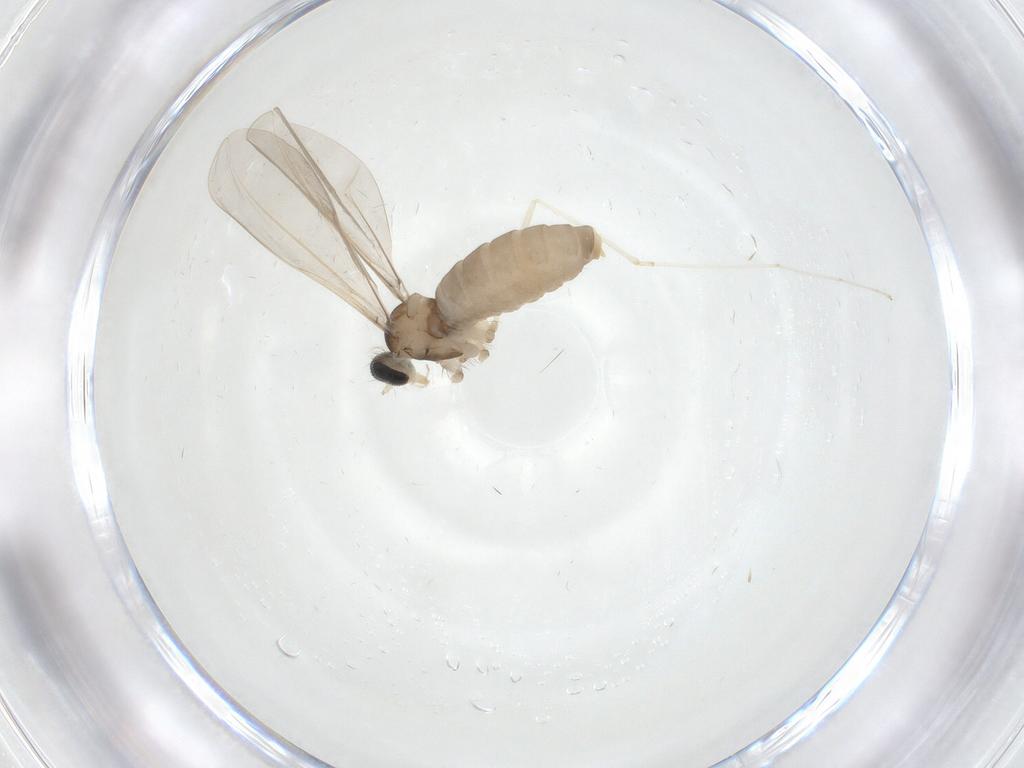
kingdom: Animalia
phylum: Arthropoda
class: Insecta
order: Diptera
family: Cecidomyiidae
